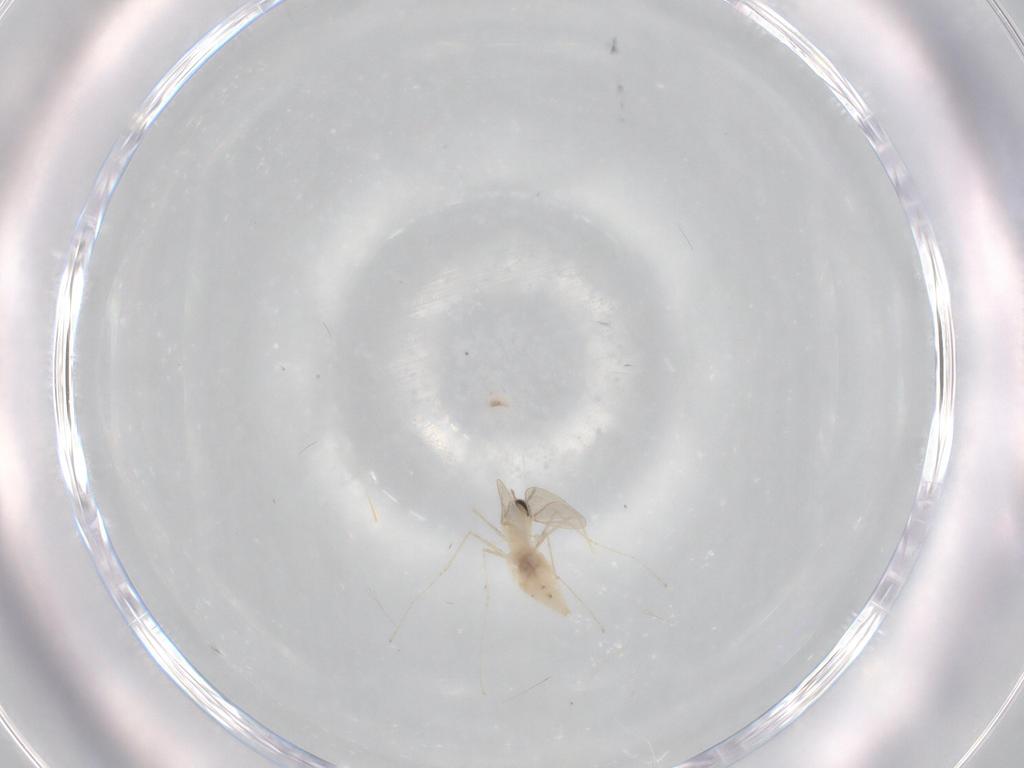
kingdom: Animalia
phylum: Arthropoda
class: Insecta
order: Diptera
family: Cecidomyiidae
